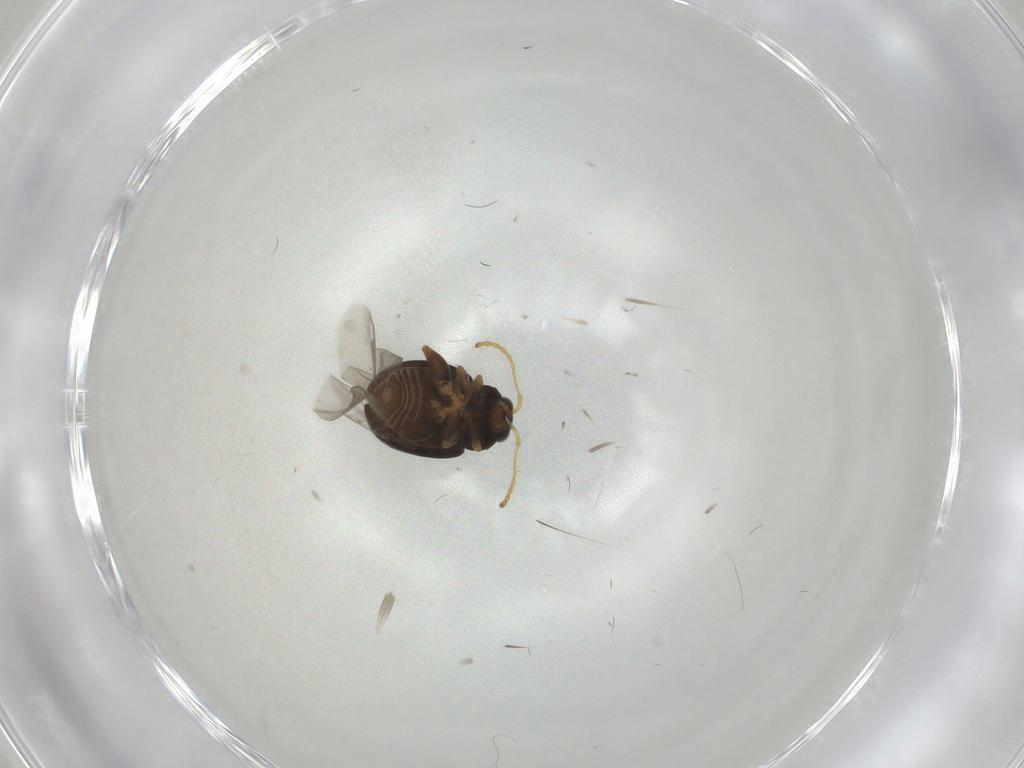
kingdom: Animalia
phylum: Arthropoda
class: Insecta
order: Coleoptera
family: Chrysomelidae
